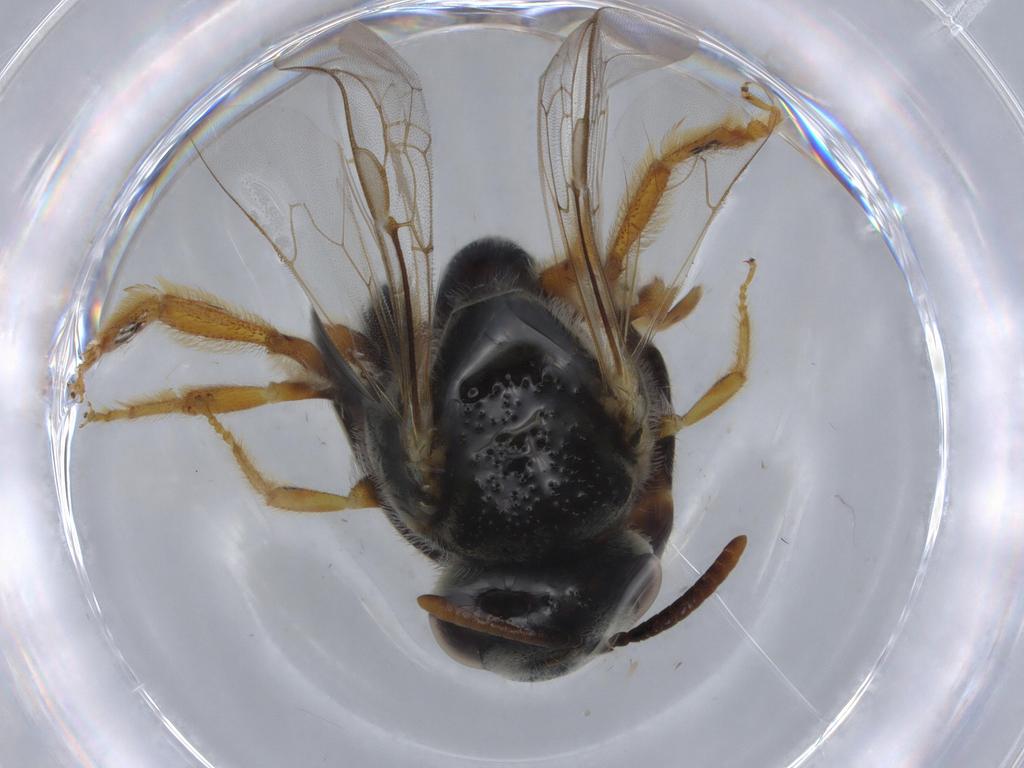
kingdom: Animalia
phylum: Arthropoda
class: Insecta
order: Hymenoptera
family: Halictidae
